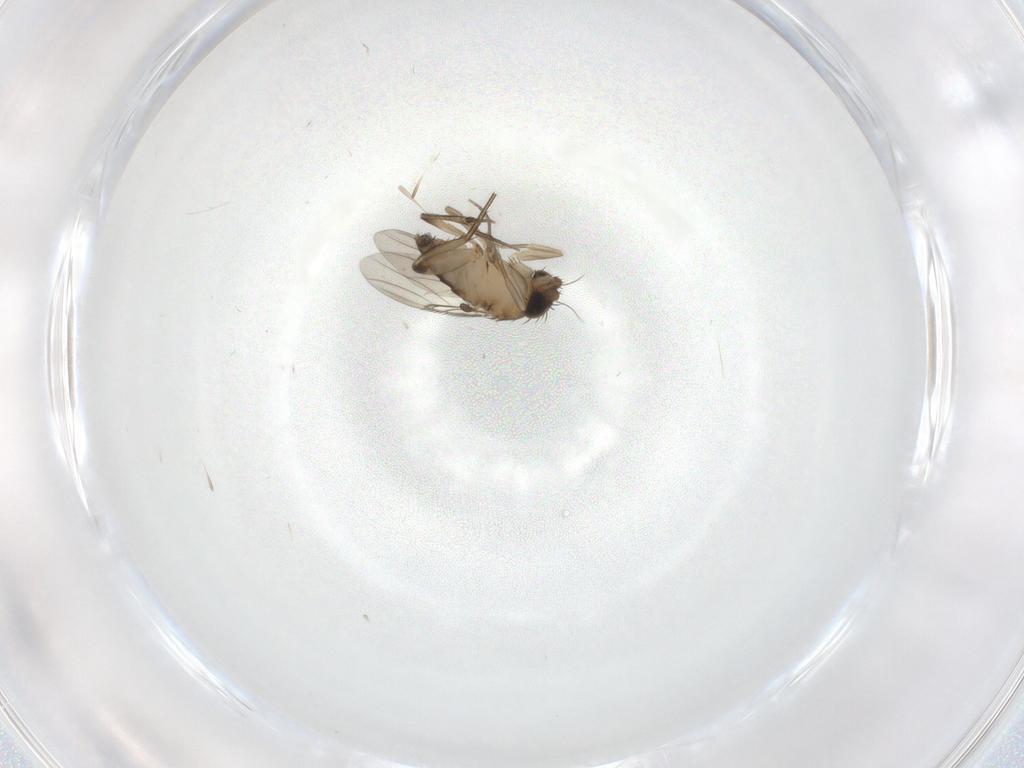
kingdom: Animalia
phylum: Arthropoda
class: Insecta
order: Diptera
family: Phoridae
